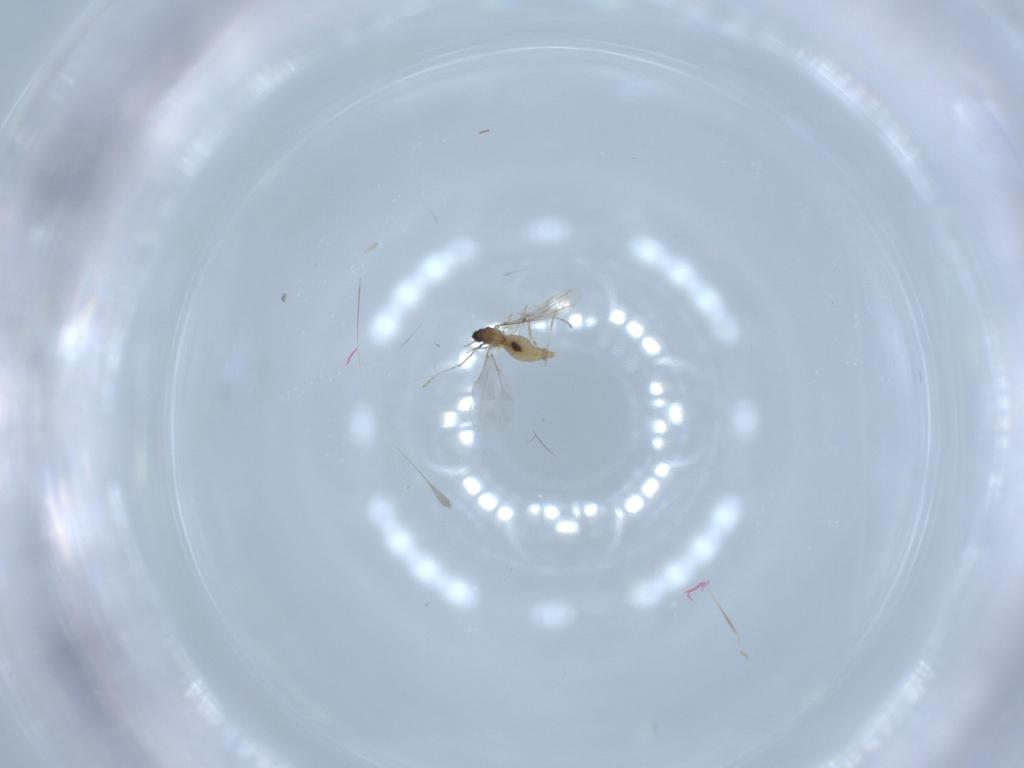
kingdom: Animalia
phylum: Arthropoda
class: Insecta
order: Diptera
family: Cecidomyiidae
